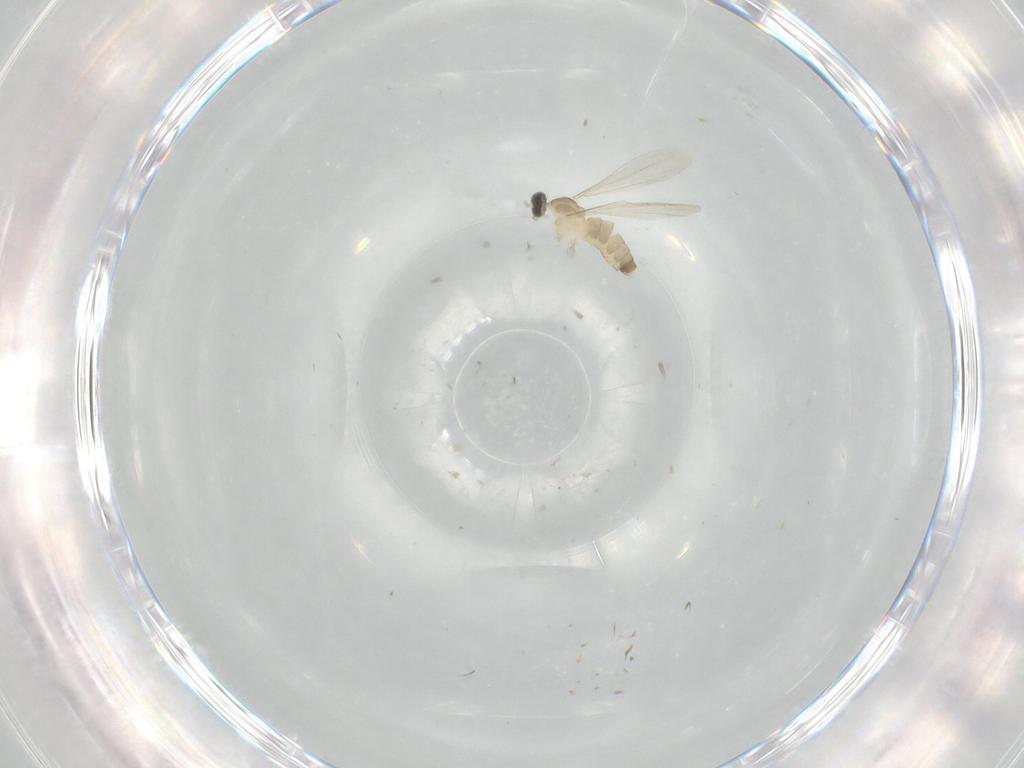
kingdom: Animalia
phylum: Arthropoda
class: Insecta
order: Diptera
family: Cecidomyiidae
